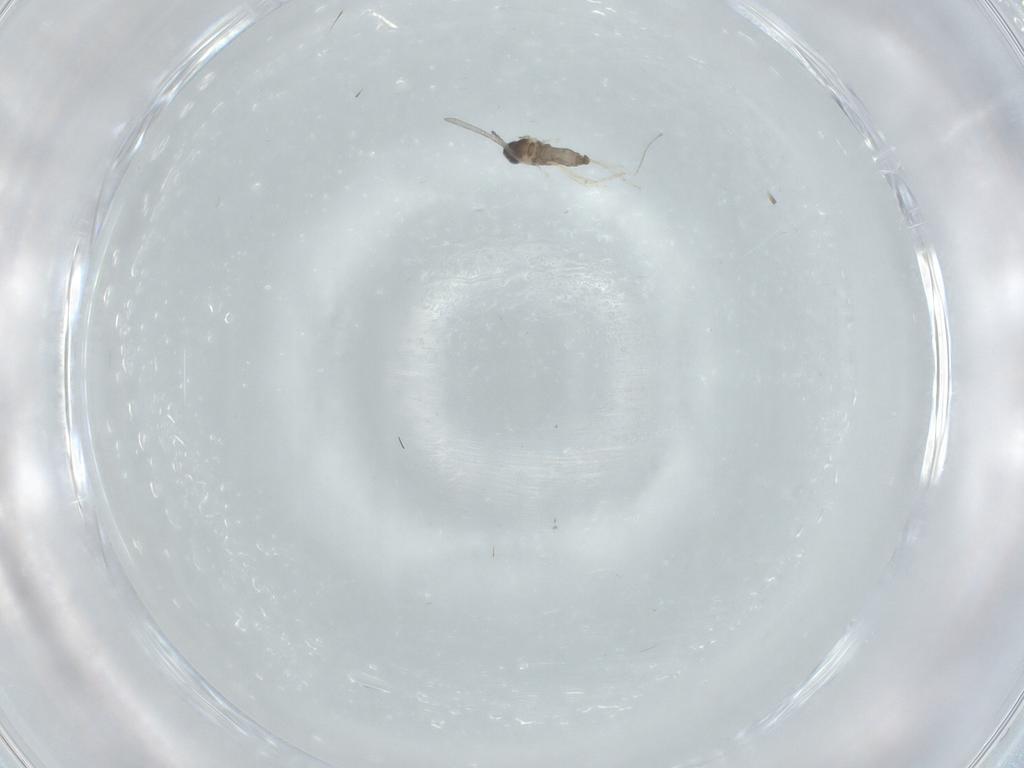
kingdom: Animalia
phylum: Arthropoda
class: Insecta
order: Diptera
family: Cecidomyiidae
